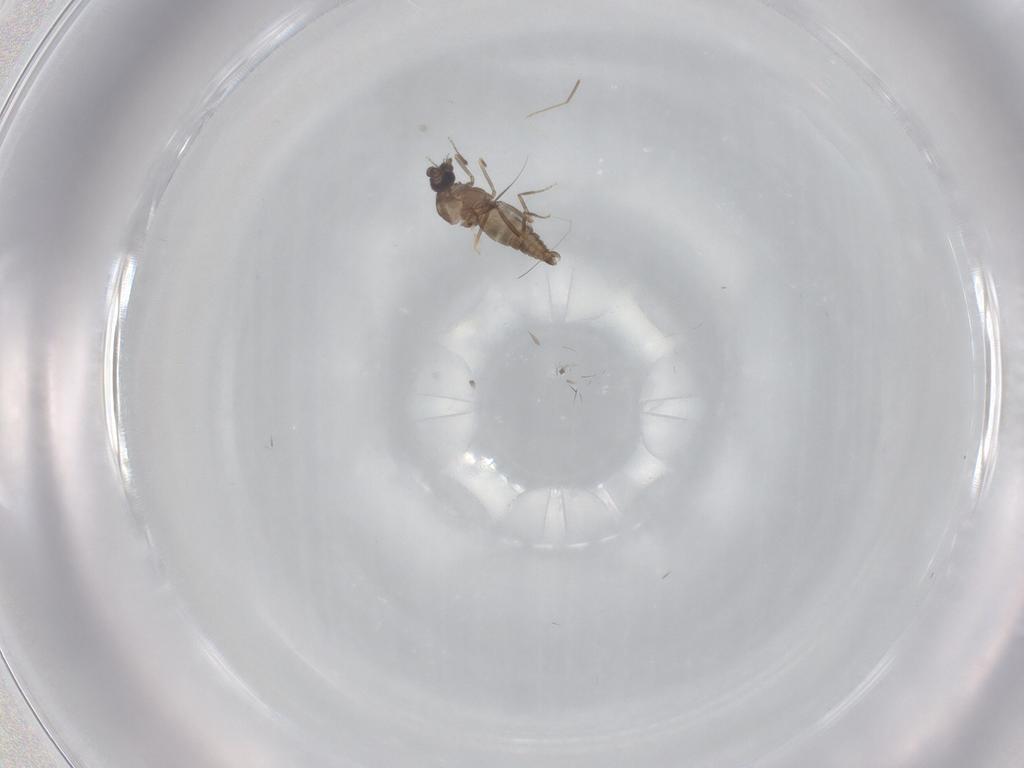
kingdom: Animalia
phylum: Arthropoda
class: Insecta
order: Diptera
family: Ceratopogonidae
